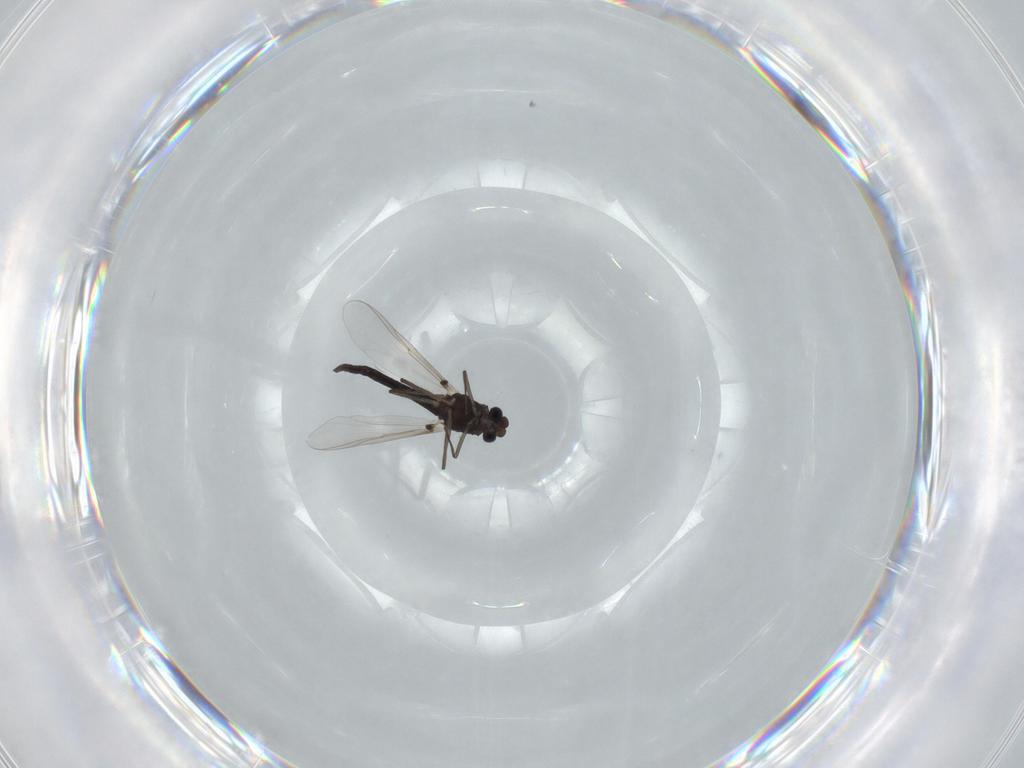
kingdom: Animalia
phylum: Arthropoda
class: Insecta
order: Diptera
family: Chironomidae
